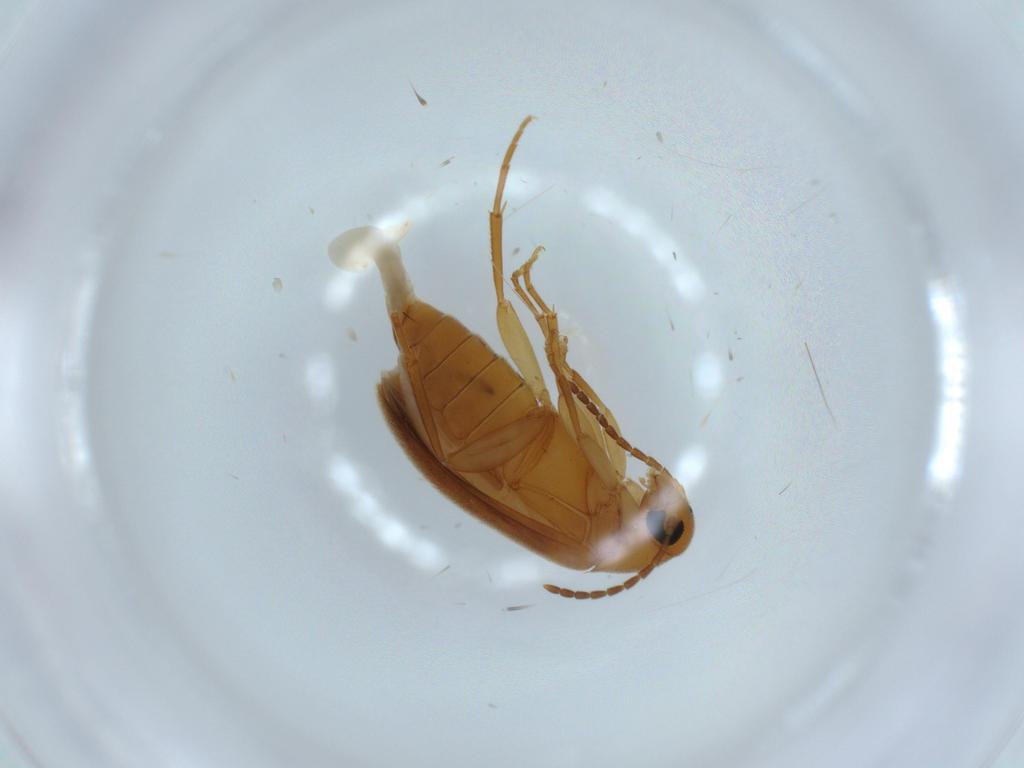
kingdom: Animalia
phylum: Arthropoda
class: Insecta
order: Coleoptera
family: Scraptiidae
